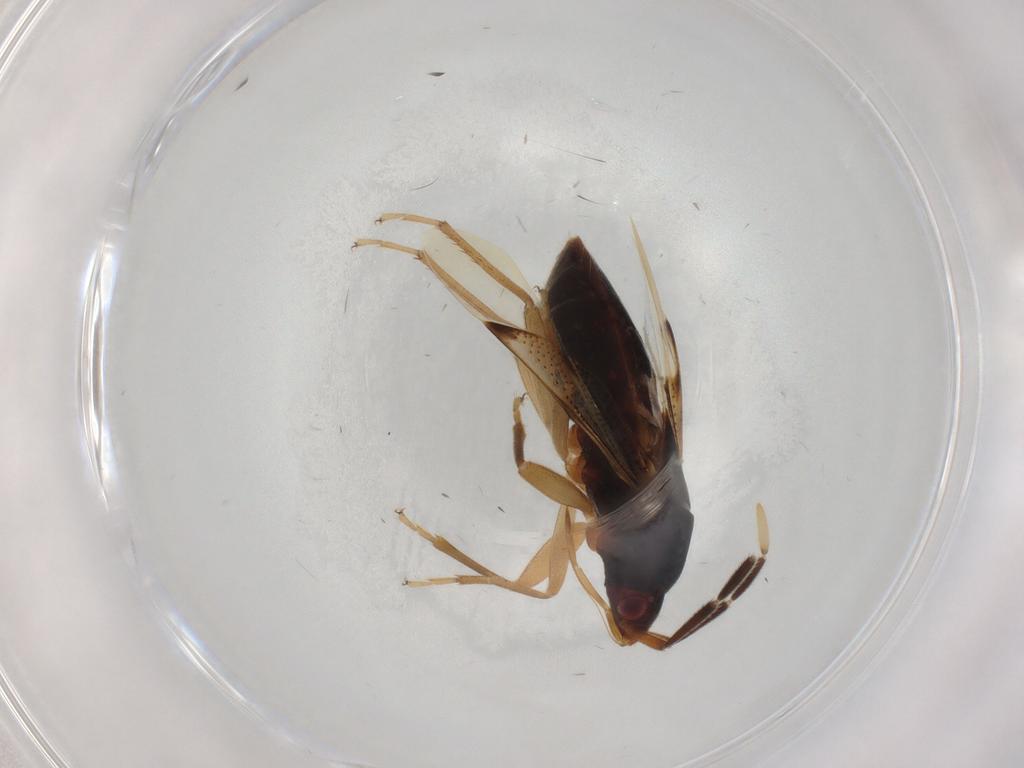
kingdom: Animalia
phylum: Arthropoda
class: Insecta
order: Hemiptera
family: Rhyparochromidae
